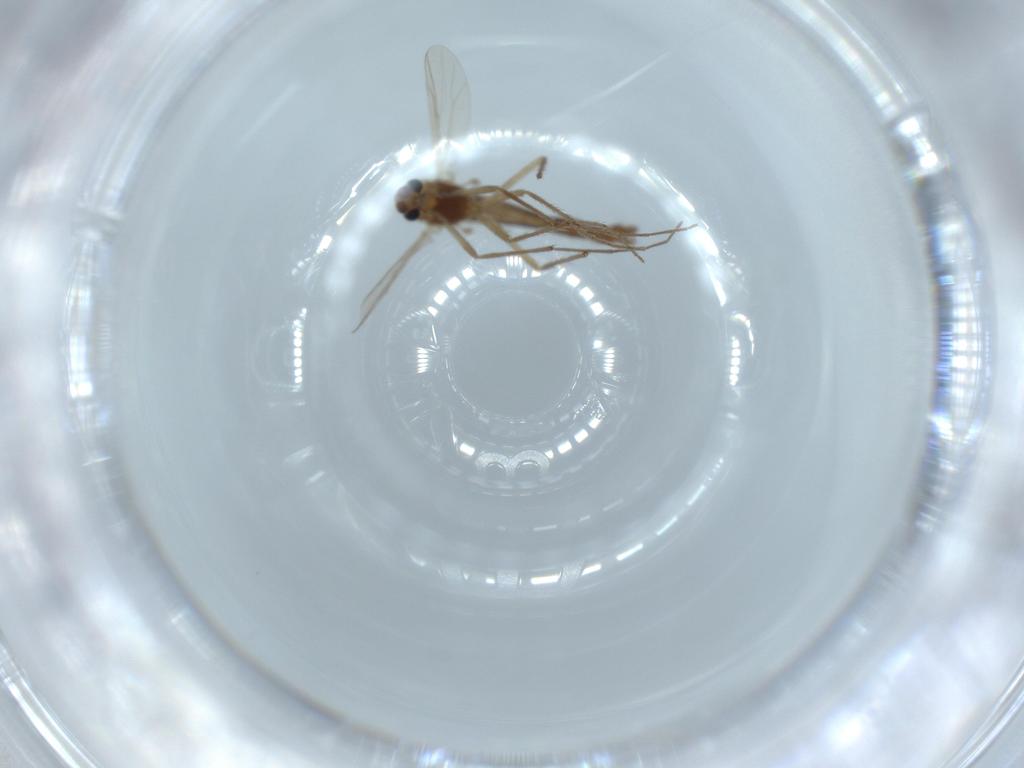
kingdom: Animalia
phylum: Arthropoda
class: Insecta
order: Diptera
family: Chironomidae
